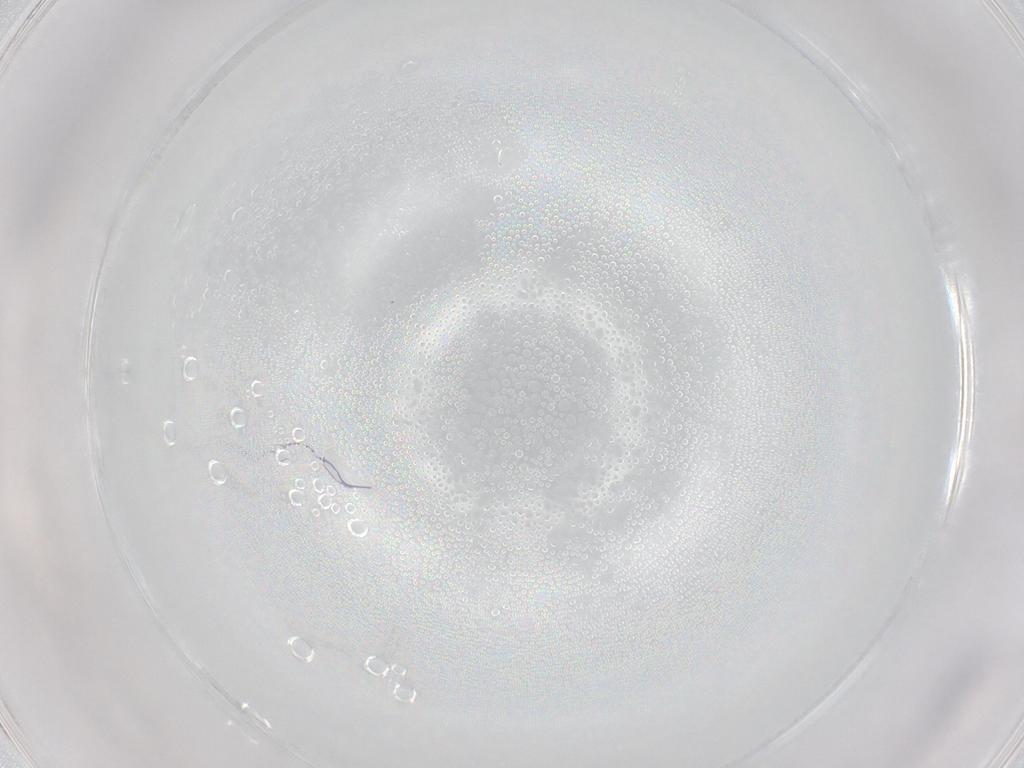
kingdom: Animalia
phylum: Arthropoda
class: Insecta
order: Diptera
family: Phoridae
